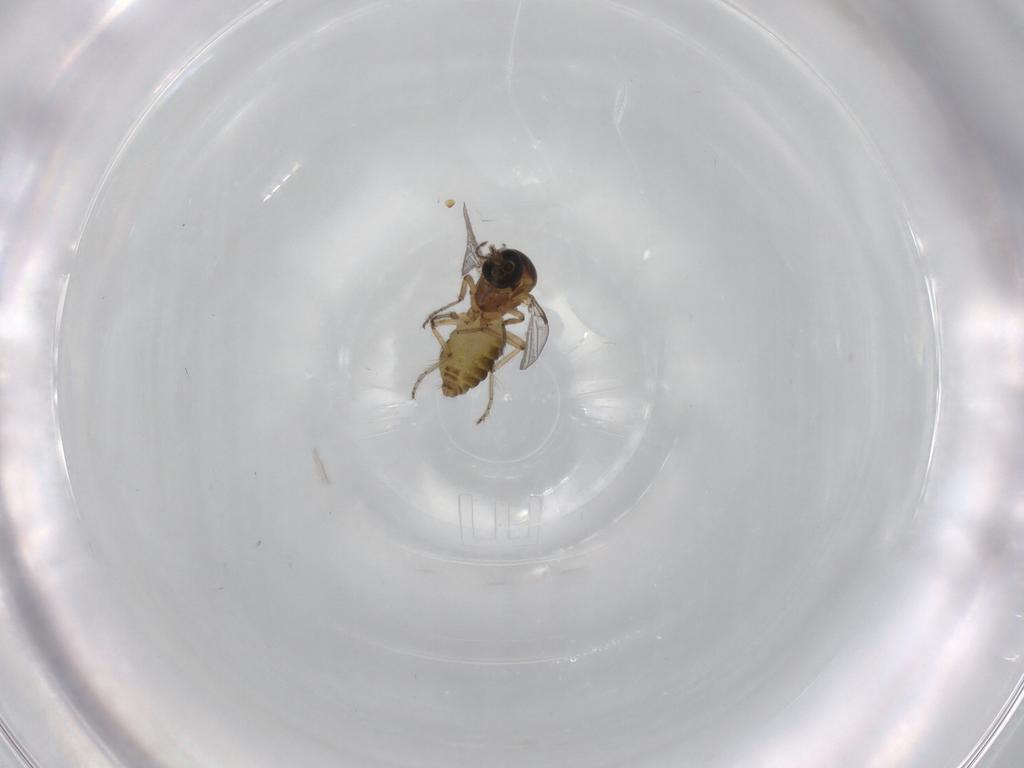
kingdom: Animalia
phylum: Arthropoda
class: Insecta
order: Diptera
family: Ceratopogonidae
